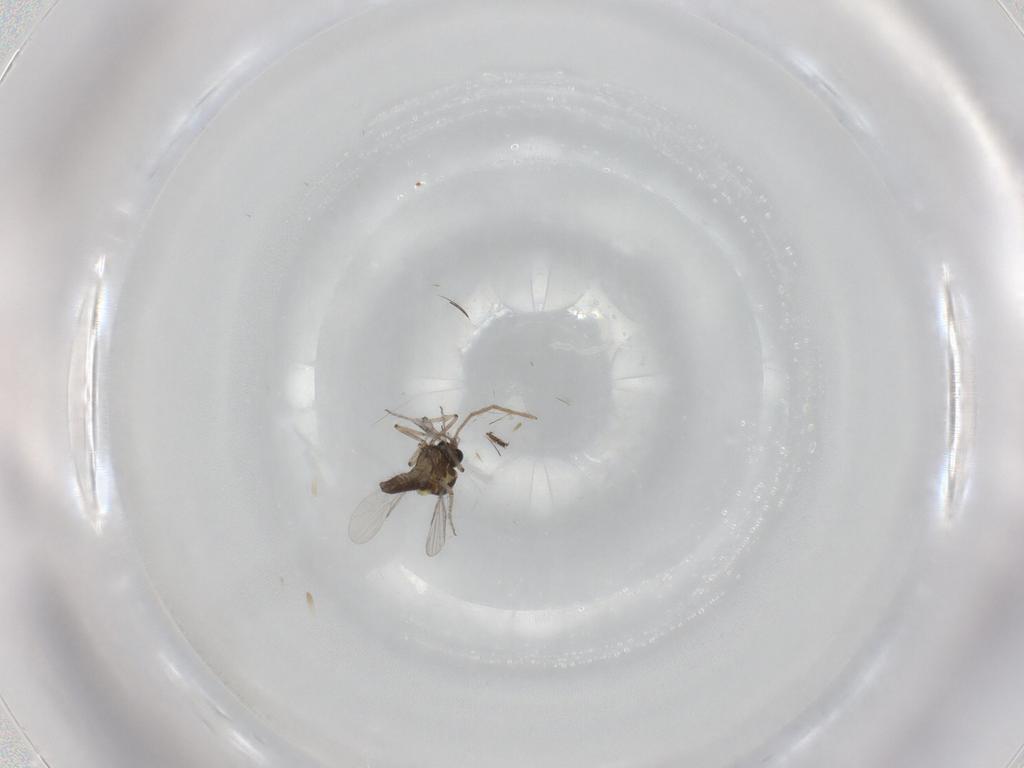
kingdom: Animalia
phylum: Arthropoda
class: Insecta
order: Diptera
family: Ceratopogonidae
